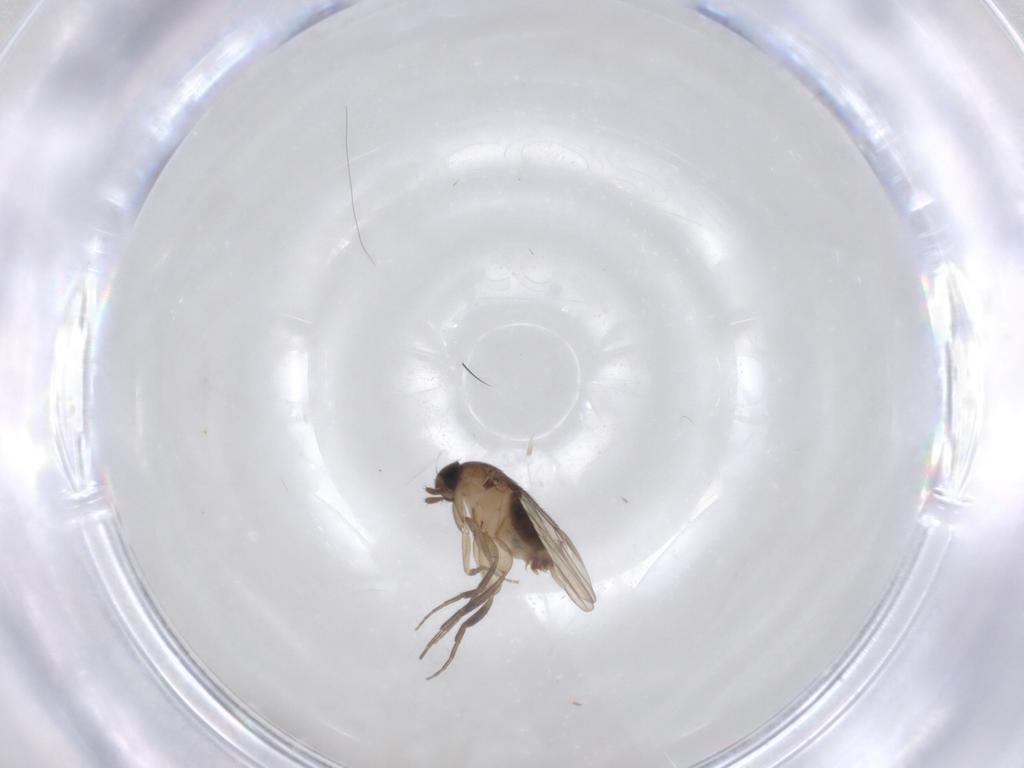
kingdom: Animalia
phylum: Arthropoda
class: Insecta
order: Diptera
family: Phoridae
